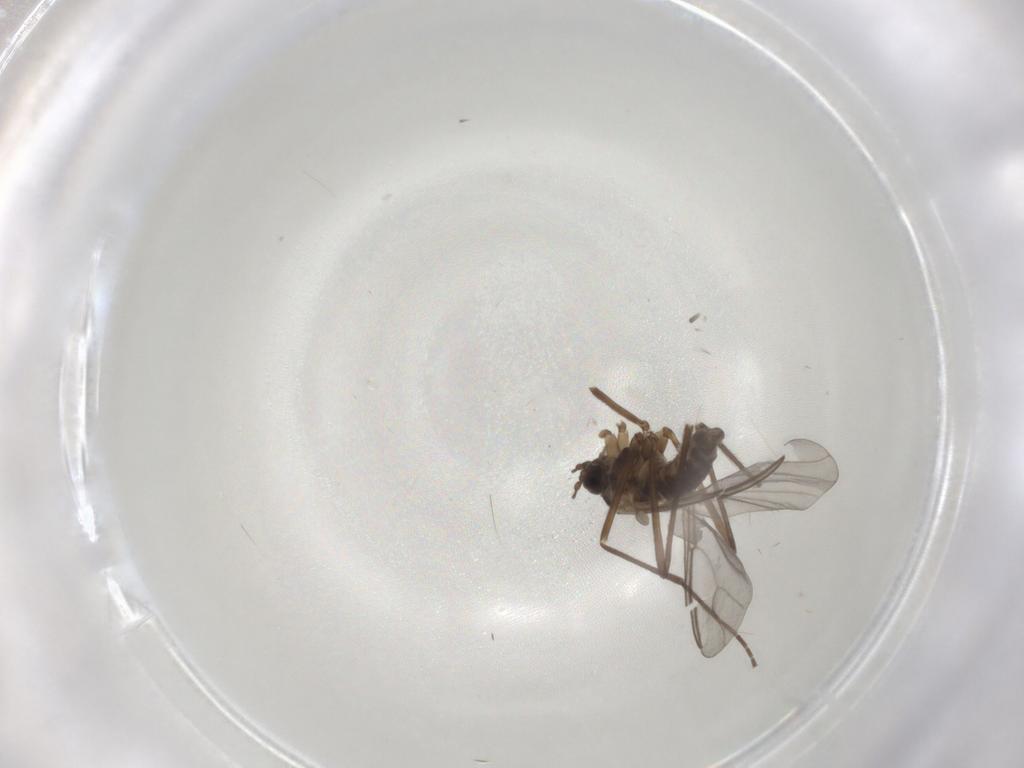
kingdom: Animalia
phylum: Arthropoda
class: Insecta
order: Diptera
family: Cecidomyiidae
